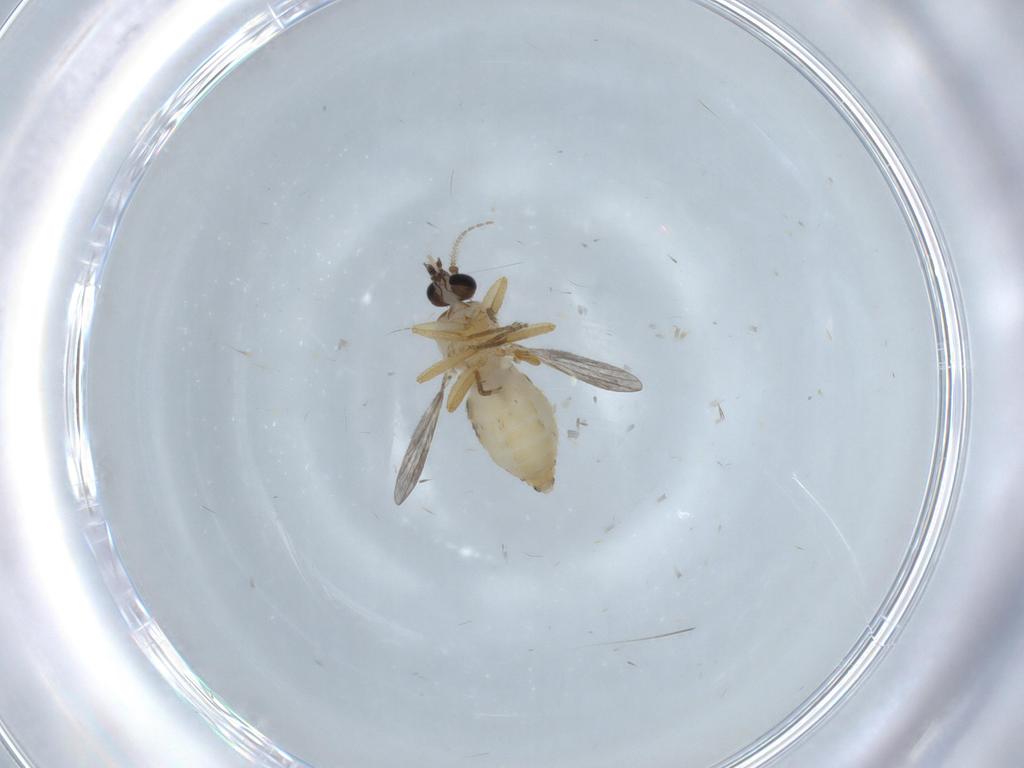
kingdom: Animalia
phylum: Arthropoda
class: Insecta
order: Diptera
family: Ceratopogonidae
